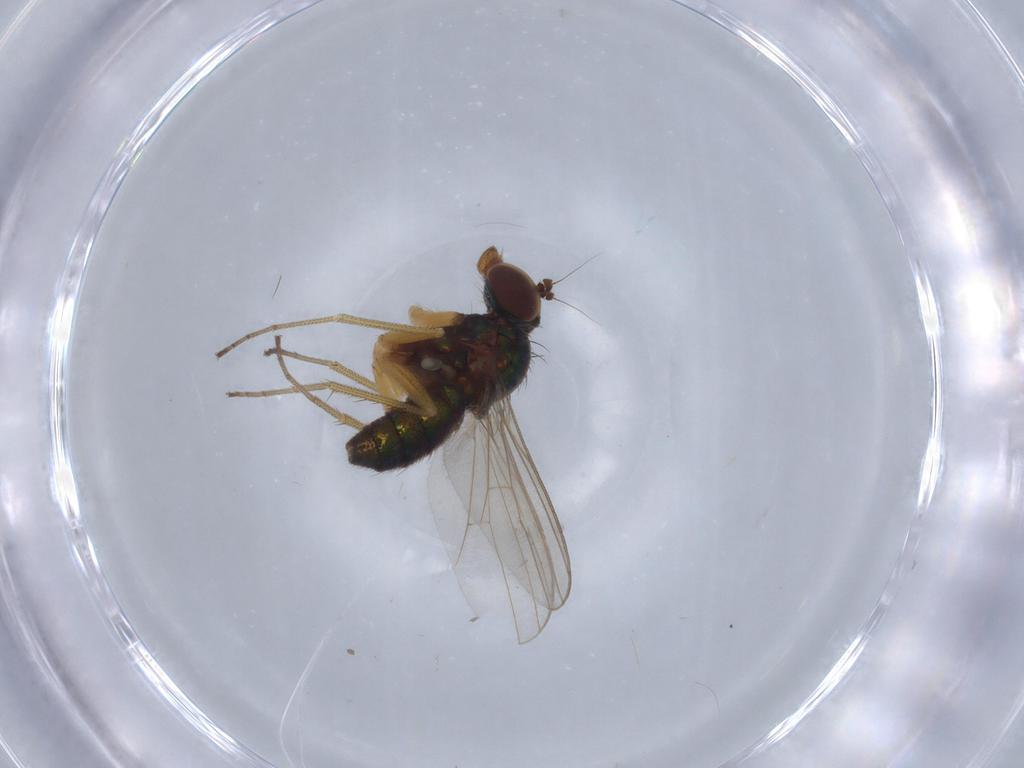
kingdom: Animalia
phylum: Arthropoda
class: Insecta
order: Diptera
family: Dolichopodidae
